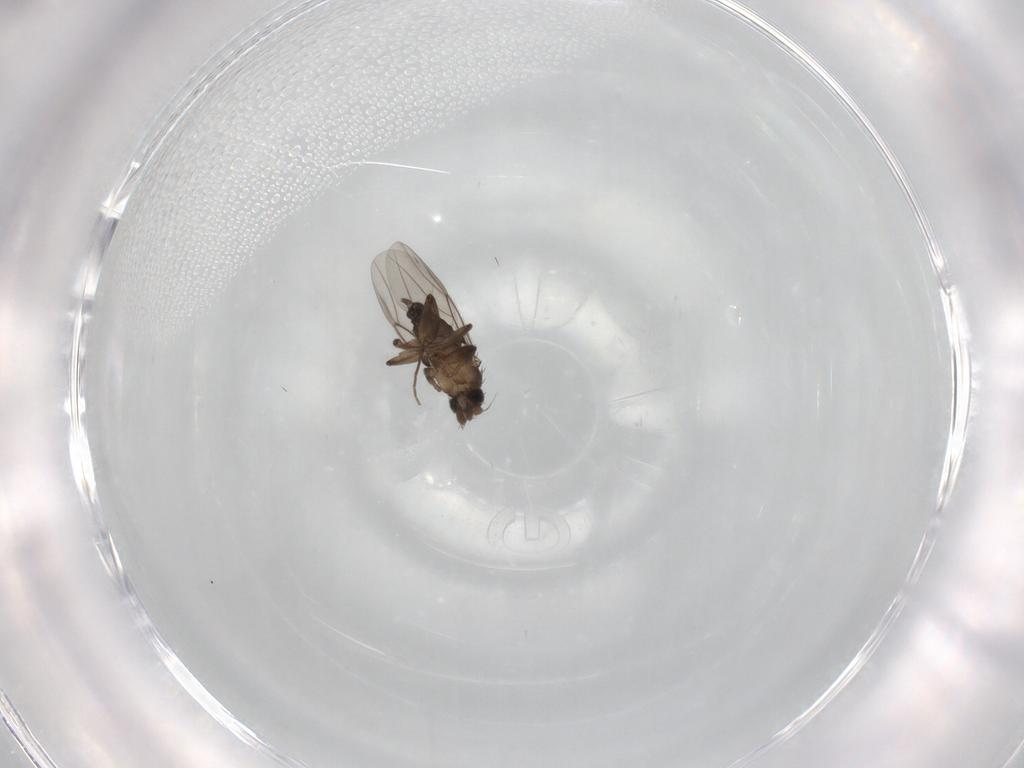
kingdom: Animalia
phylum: Arthropoda
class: Insecta
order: Diptera
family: Phoridae
